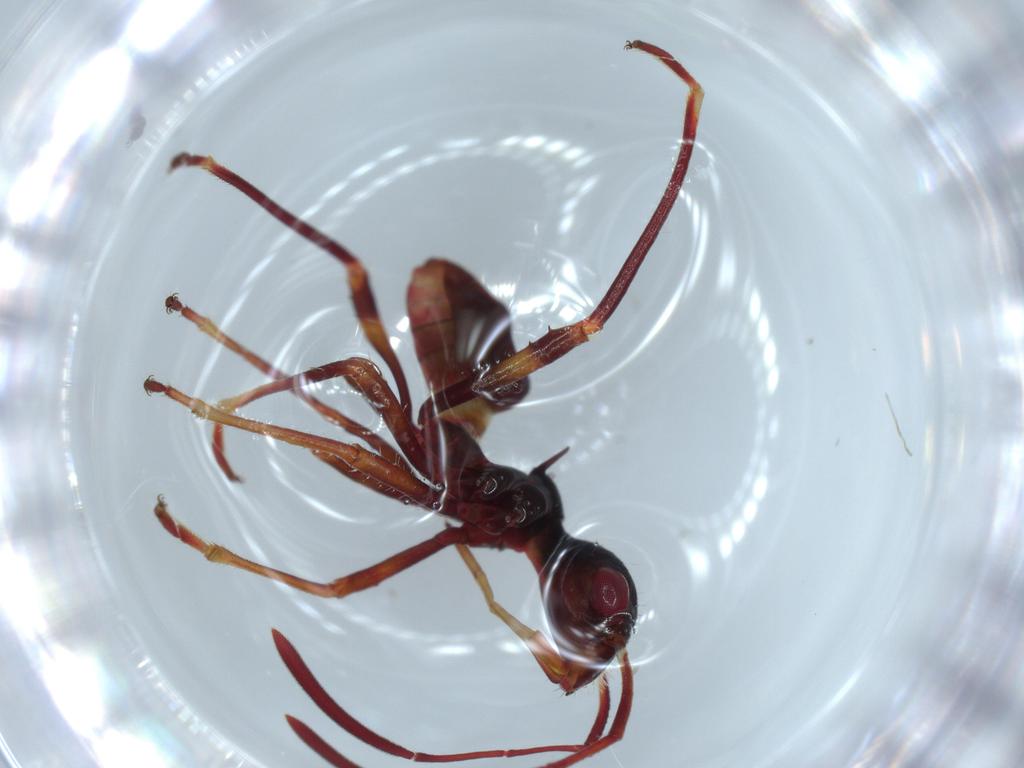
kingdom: Animalia
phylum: Arthropoda
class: Insecta
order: Hemiptera
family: Alydidae
